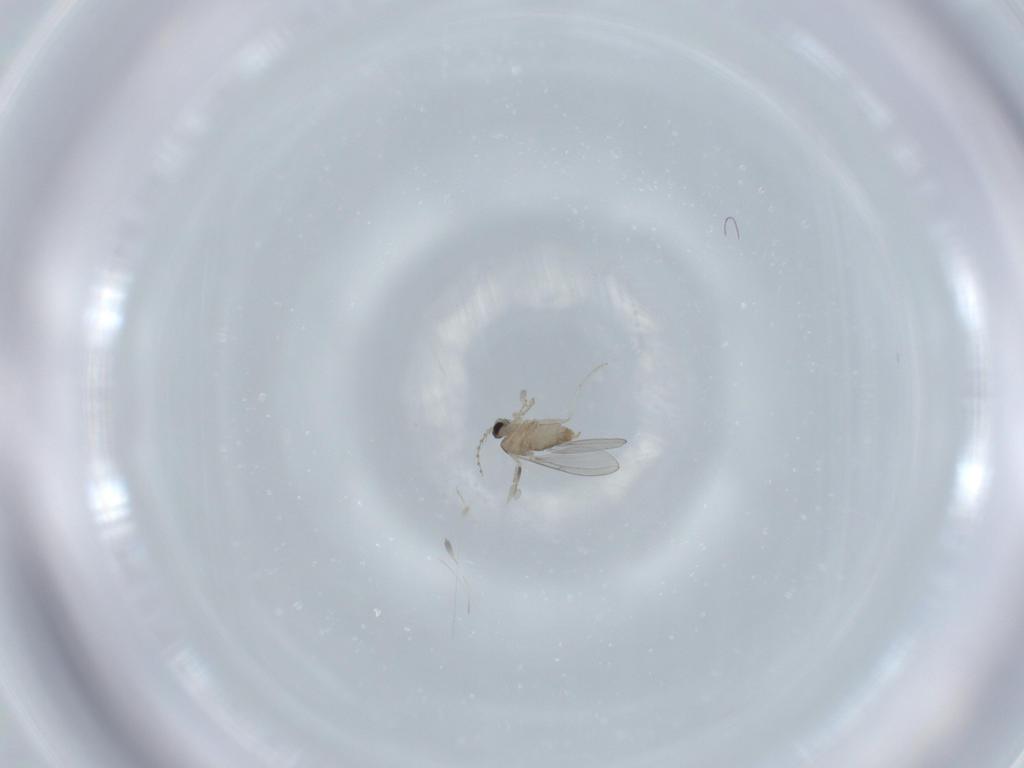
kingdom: Animalia
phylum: Arthropoda
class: Insecta
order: Diptera
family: Cecidomyiidae
